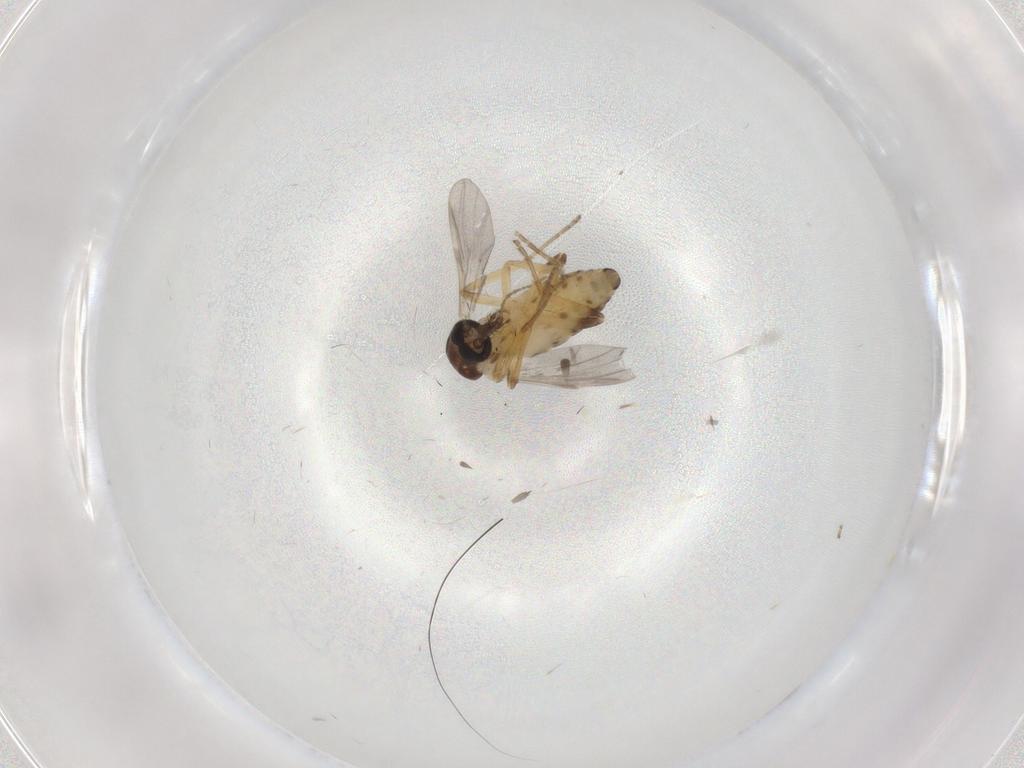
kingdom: Animalia
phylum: Arthropoda
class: Insecta
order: Diptera
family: Ceratopogonidae
